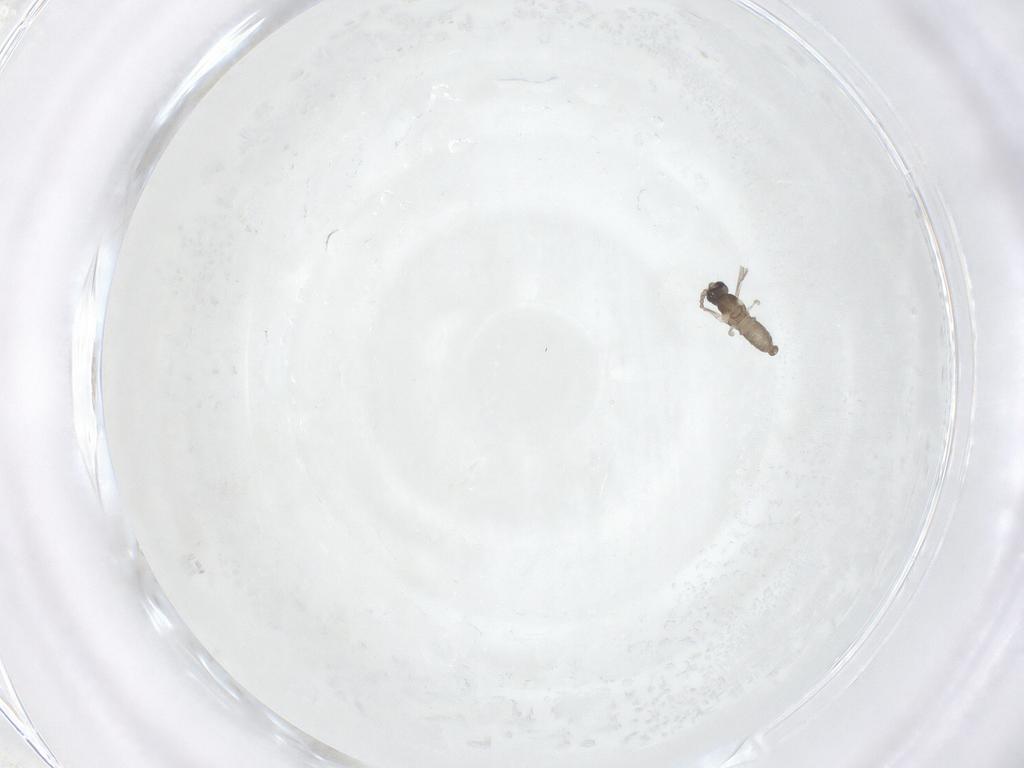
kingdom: Animalia
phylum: Arthropoda
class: Insecta
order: Diptera
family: Cecidomyiidae
